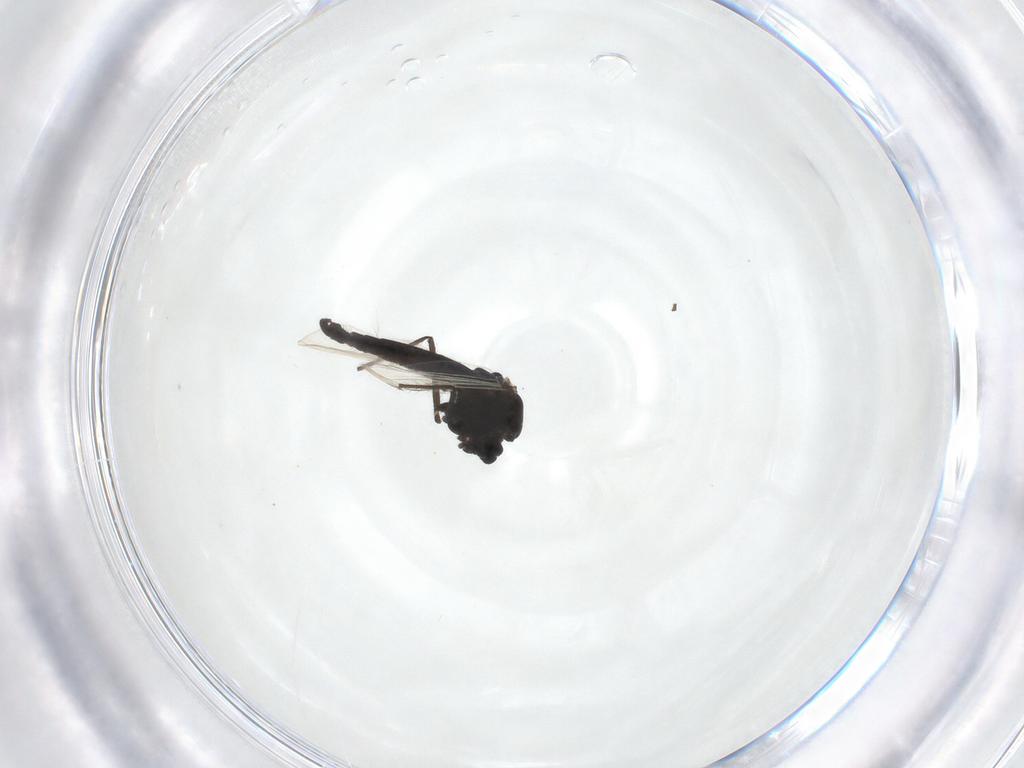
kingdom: Animalia
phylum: Arthropoda
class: Insecta
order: Diptera
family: Chironomidae
